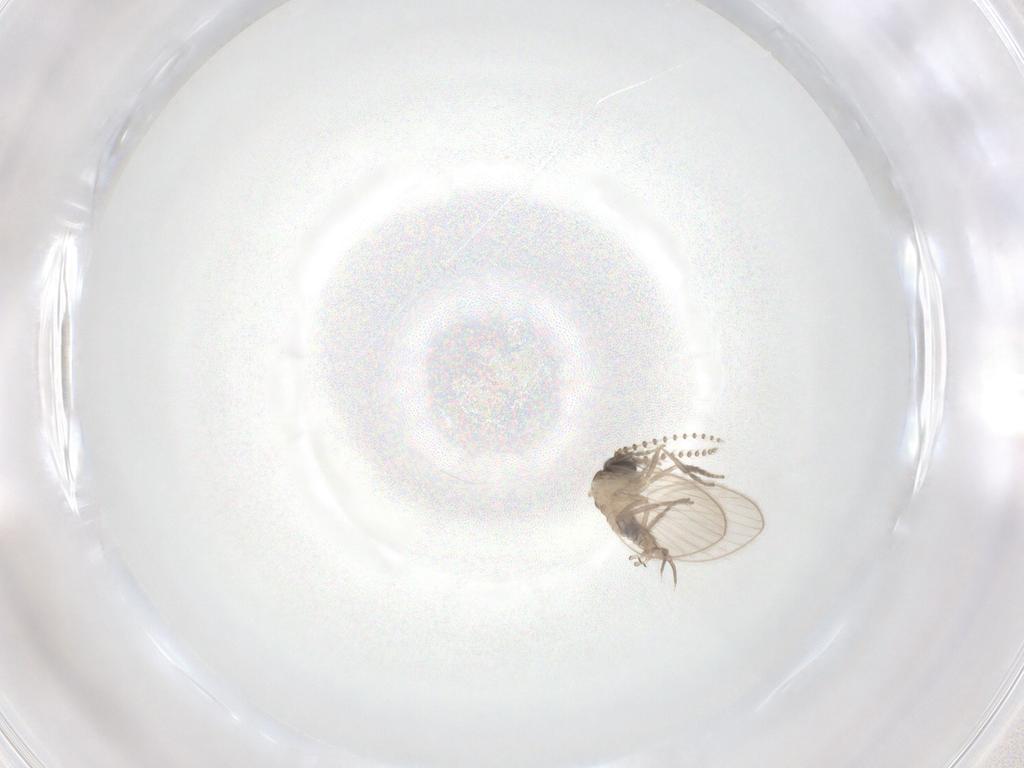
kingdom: Animalia
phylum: Arthropoda
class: Insecta
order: Diptera
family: Psychodidae
